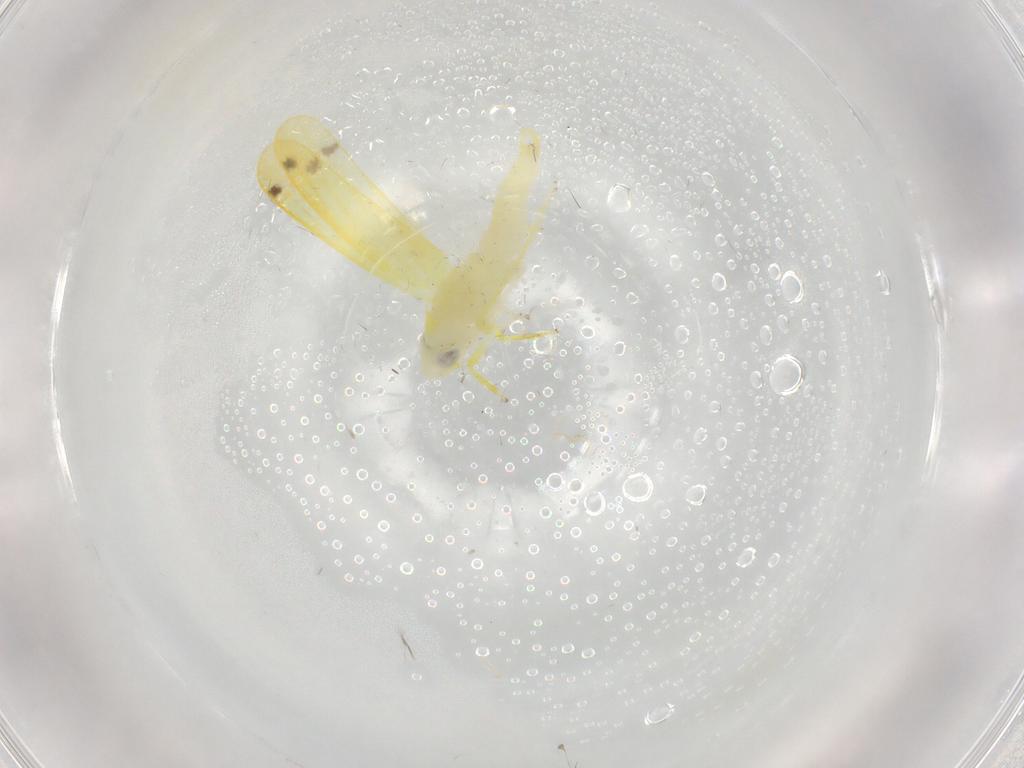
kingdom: Animalia
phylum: Arthropoda
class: Insecta
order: Hemiptera
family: Cicadellidae
